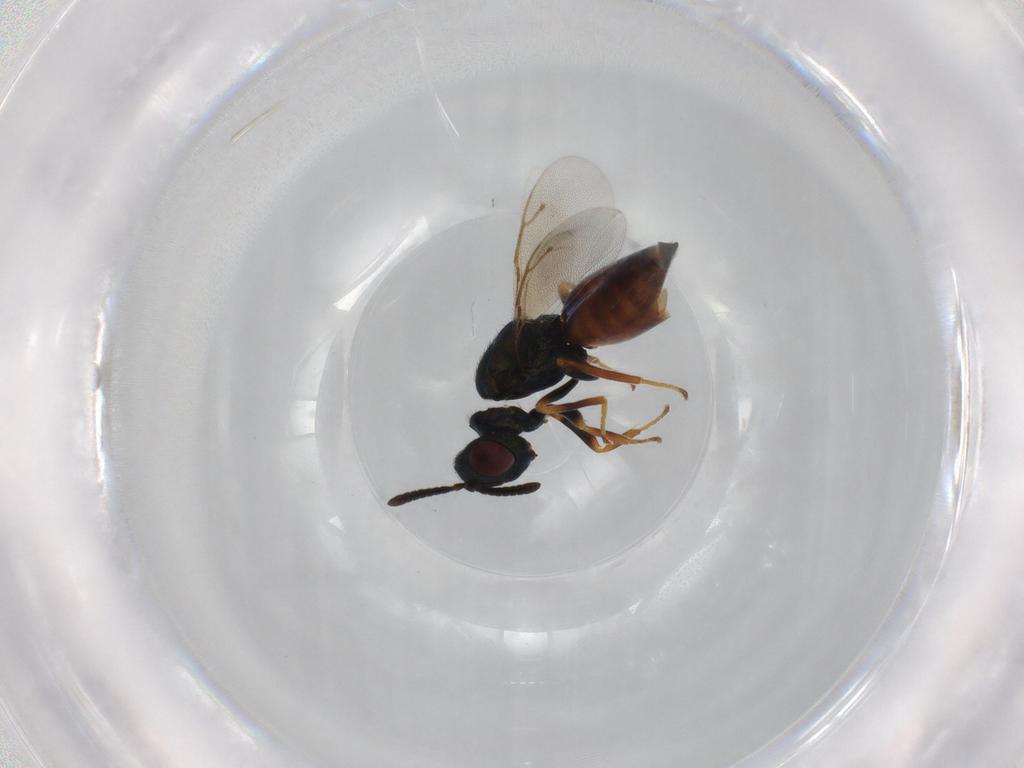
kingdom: Animalia
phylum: Arthropoda
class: Insecta
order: Hymenoptera
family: Pteromalidae
